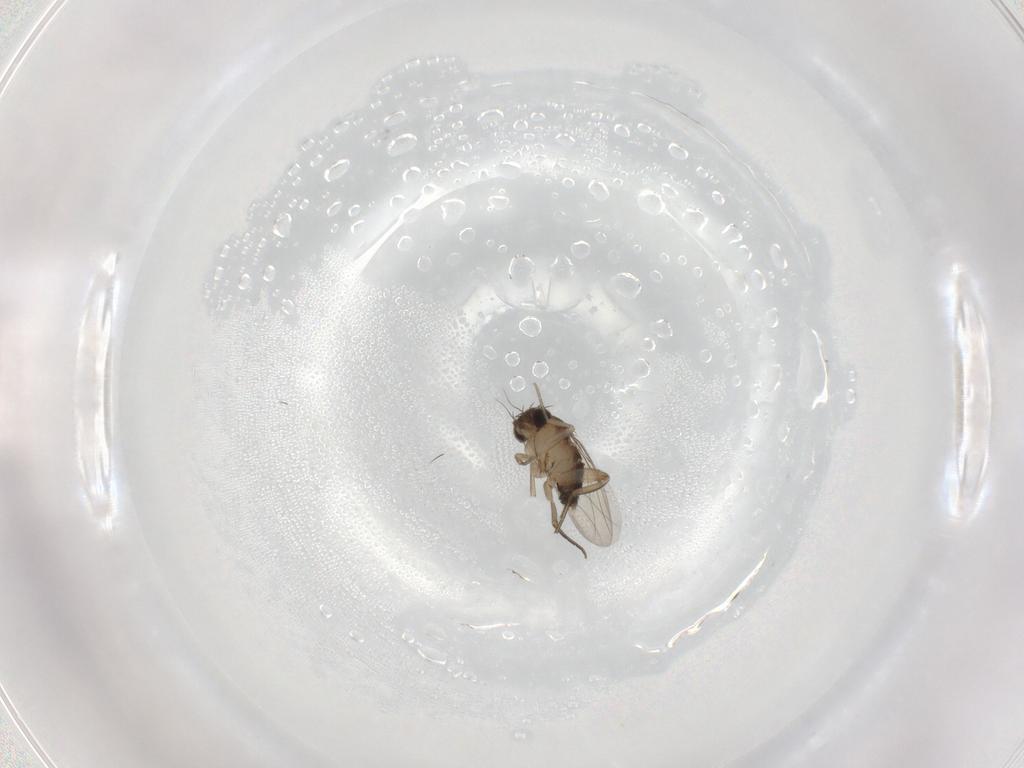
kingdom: Animalia
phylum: Arthropoda
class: Insecta
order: Diptera
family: Phoridae
